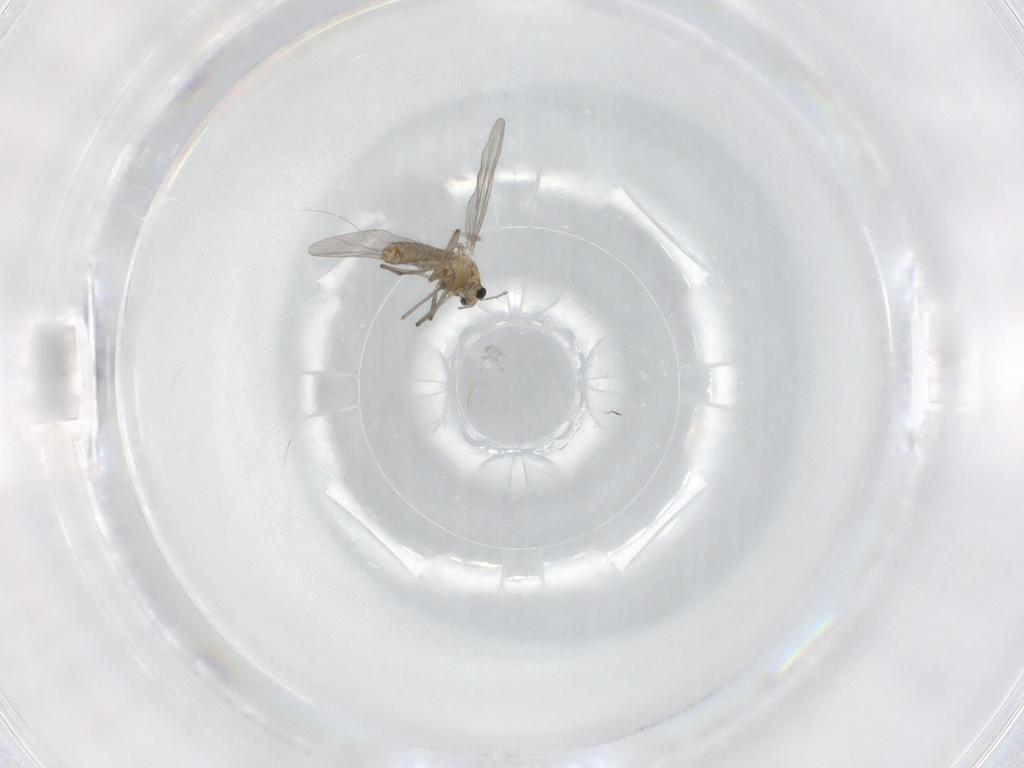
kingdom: Animalia
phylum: Arthropoda
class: Insecta
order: Diptera
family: Chironomidae
